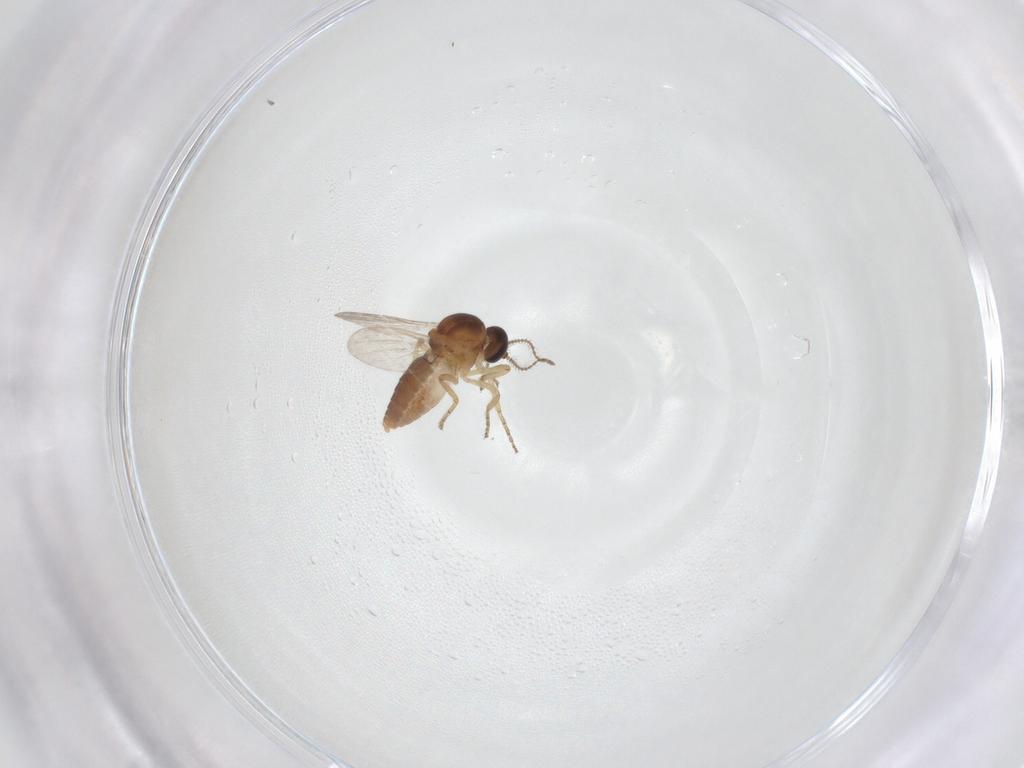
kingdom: Animalia
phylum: Arthropoda
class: Insecta
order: Diptera
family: Ceratopogonidae
